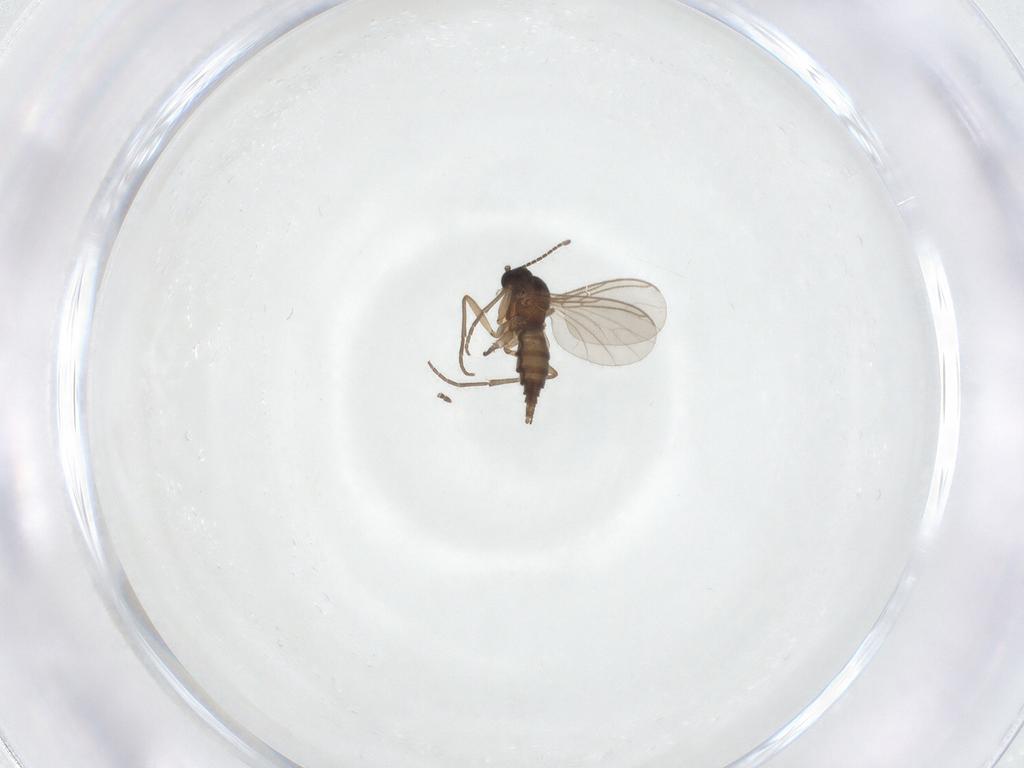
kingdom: Animalia
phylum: Arthropoda
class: Insecta
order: Diptera
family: Sciaridae
